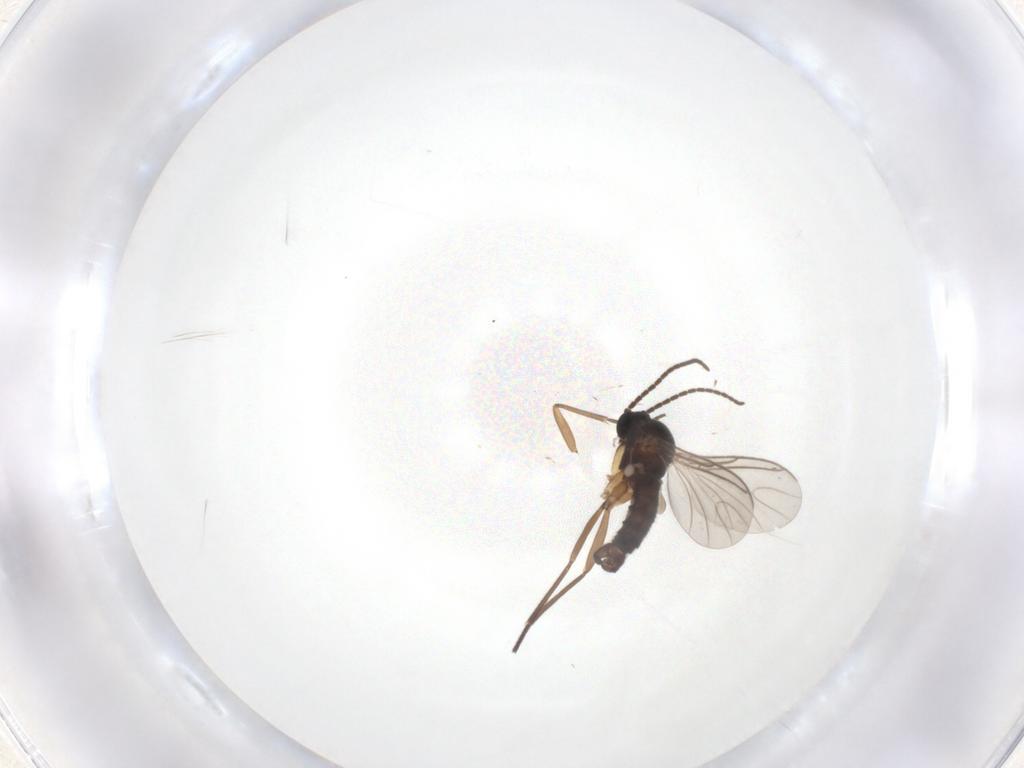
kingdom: Animalia
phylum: Arthropoda
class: Insecta
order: Diptera
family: Sciaridae
